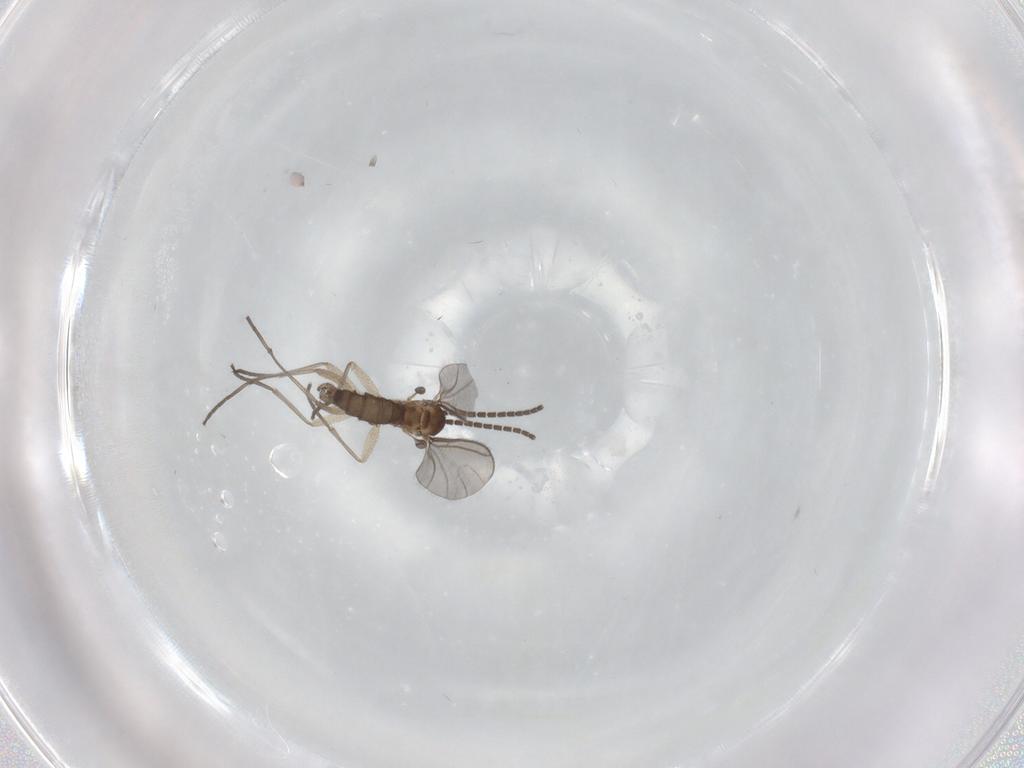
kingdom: Animalia
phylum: Arthropoda
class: Insecta
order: Diptera
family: Sciaridae
